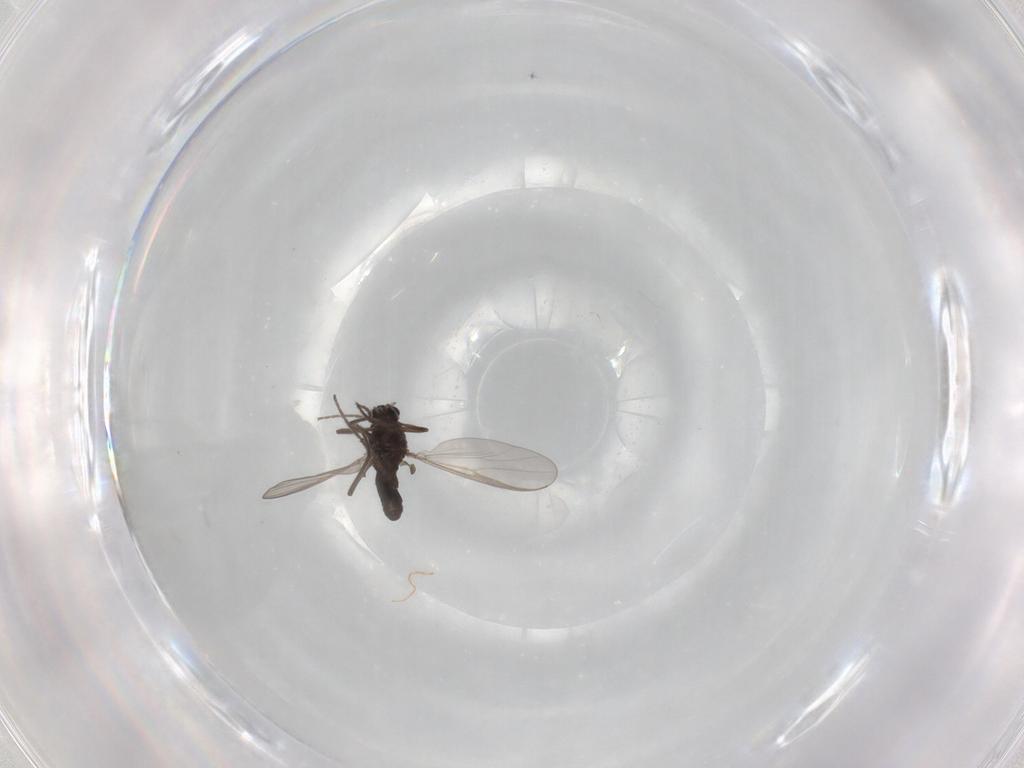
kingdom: Animalia
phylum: Arthropoda
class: Insecta
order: Diptera
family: Chironomidae
